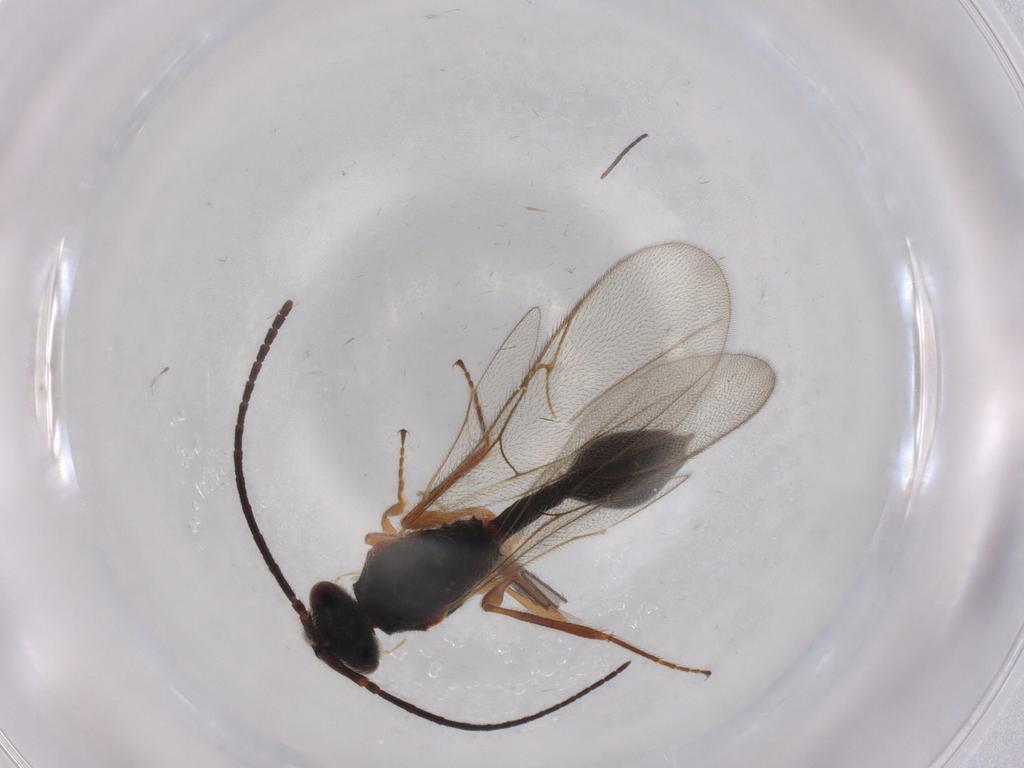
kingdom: Animalia
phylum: Arthropoda
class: Insecta
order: Hymenoptera
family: Diapriidae
